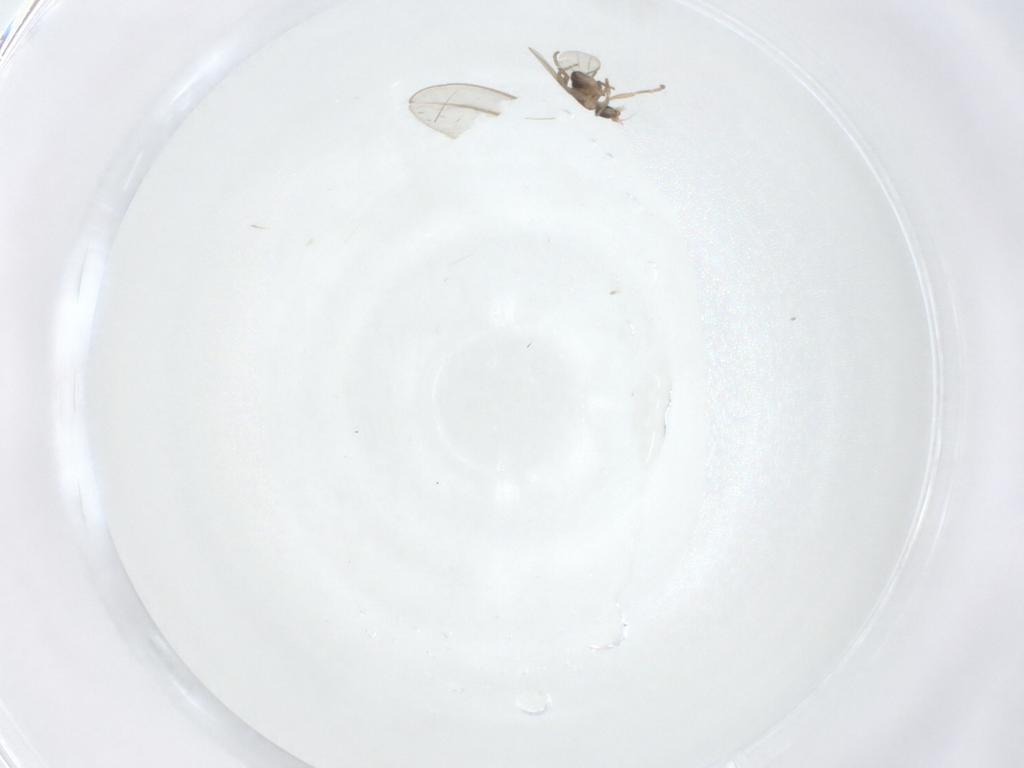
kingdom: Animalia
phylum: Arthropoda
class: Insecta
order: Diptera
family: Phoridae
